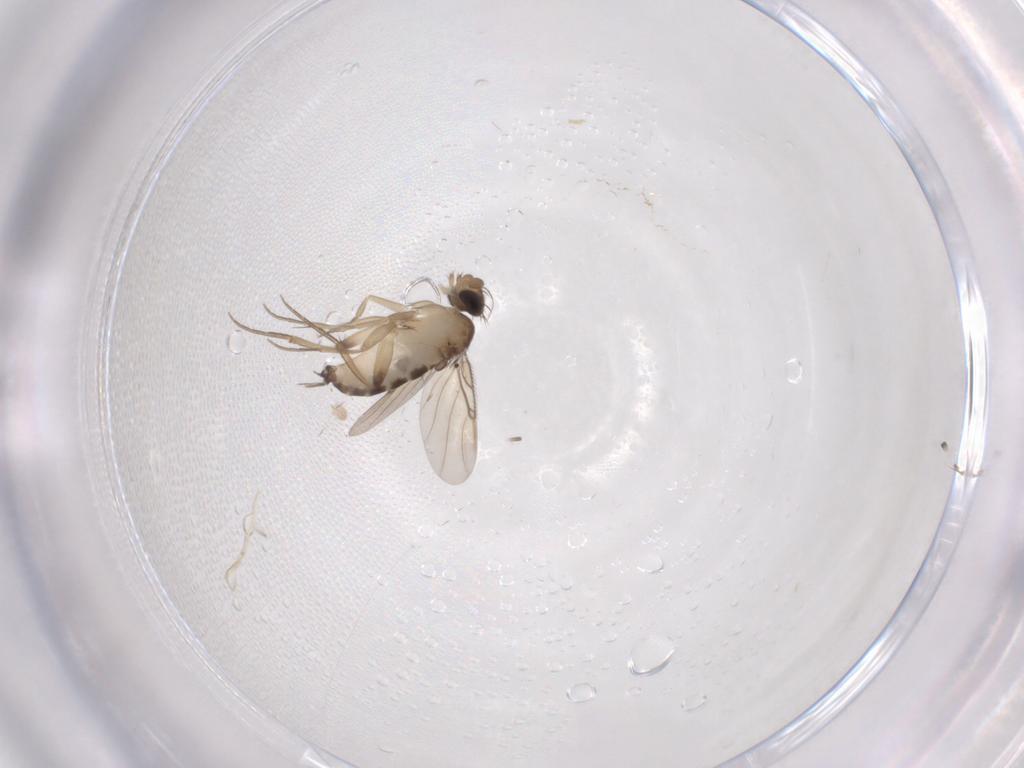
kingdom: Animalia
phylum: Arthropoda
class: Insecta
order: Diptera
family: Phoridae
